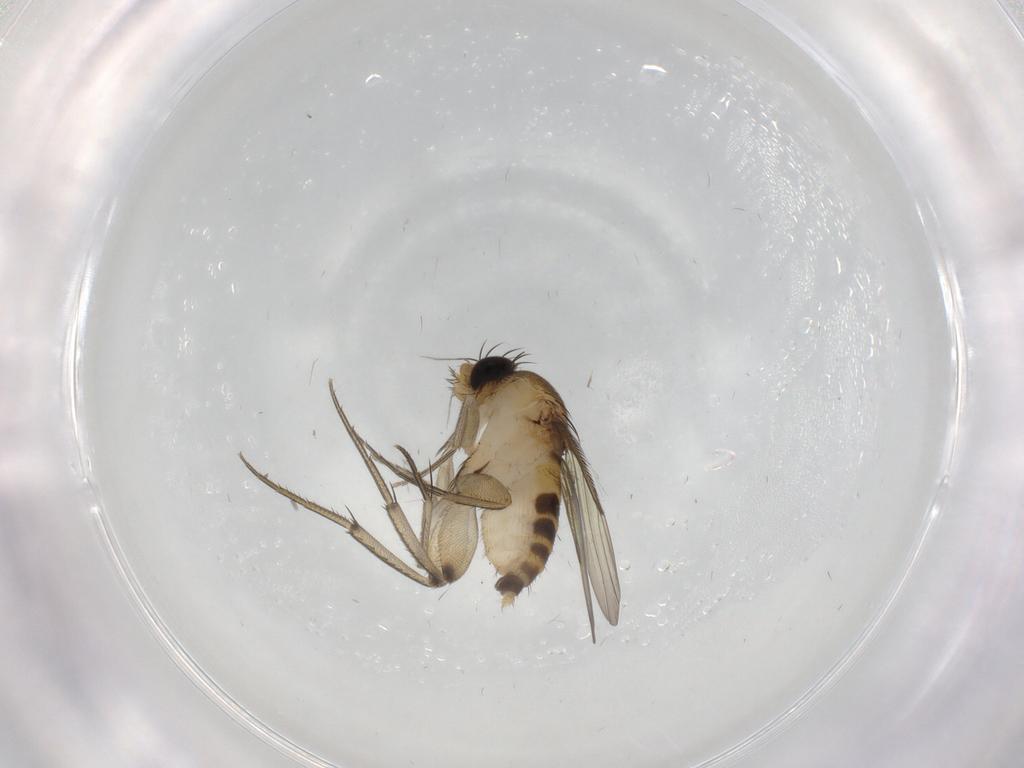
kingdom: Animalia
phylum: Arthropoda
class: Insecta
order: Diptera
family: Phoridae
